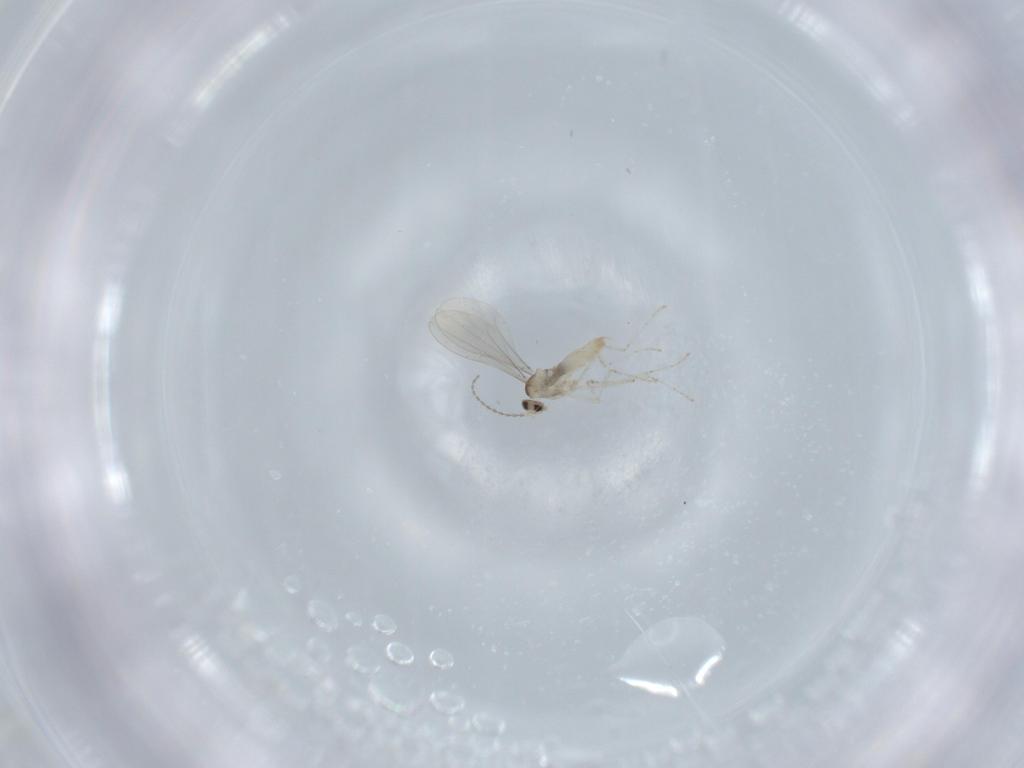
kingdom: Animalia
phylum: Arthropoda
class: Insecta
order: Diptera
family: Cecidomyiidae
